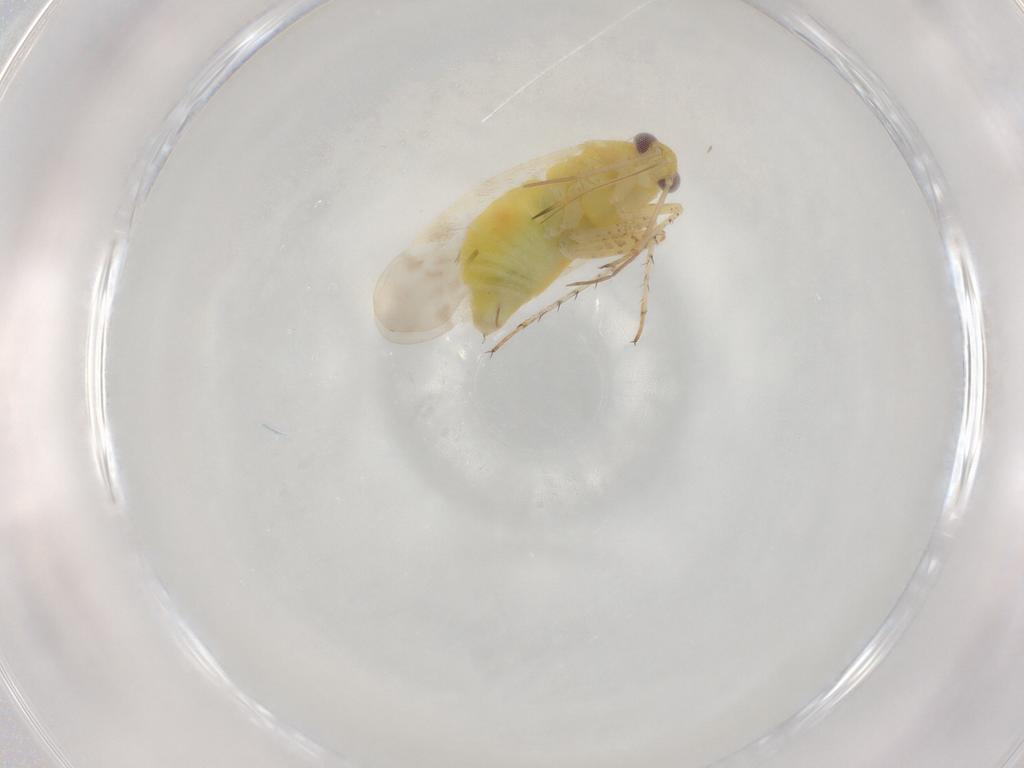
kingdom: Animalia
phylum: Arthropoda
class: Insecta
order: Hemiptera
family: Miridae
